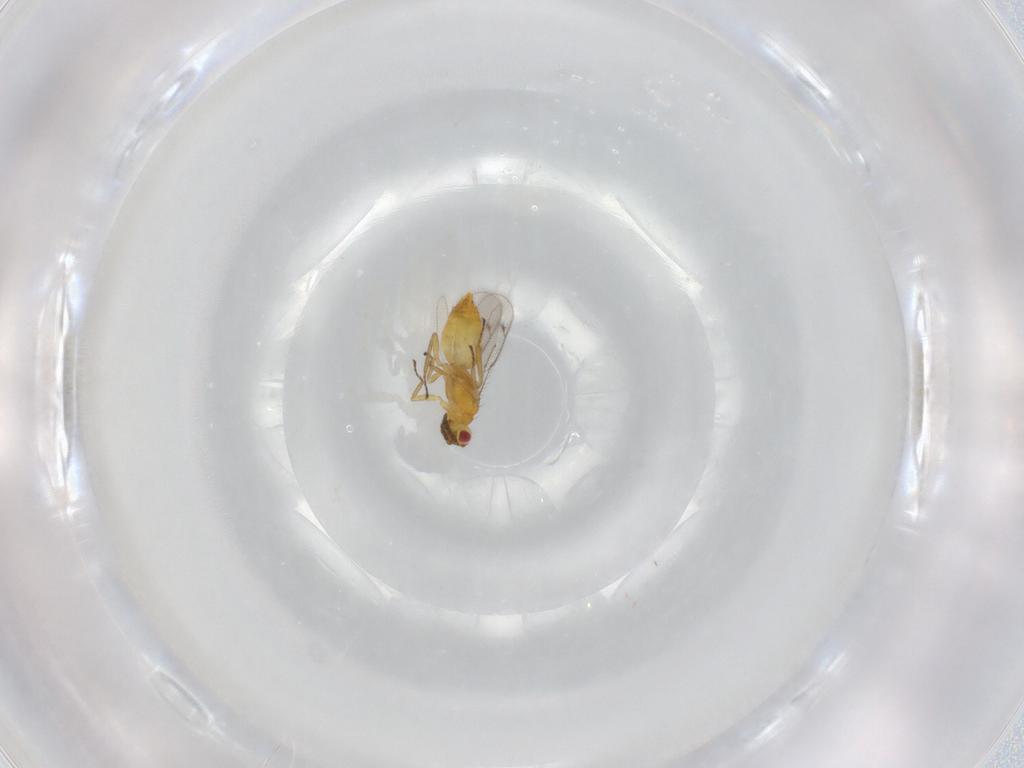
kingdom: Animalia
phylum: Arthropoda
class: Insecta
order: Hymenoptera
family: Eulophidae
